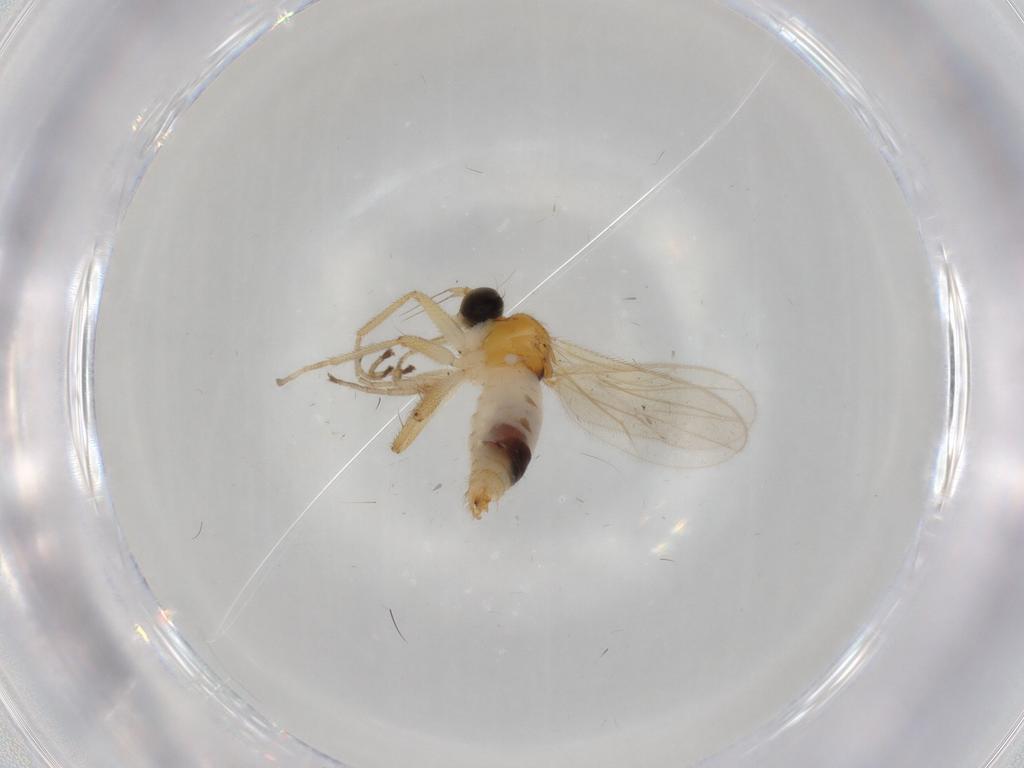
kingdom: Animalia
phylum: Arthropoda
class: Insecta
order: Diptera
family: Hybotidae
